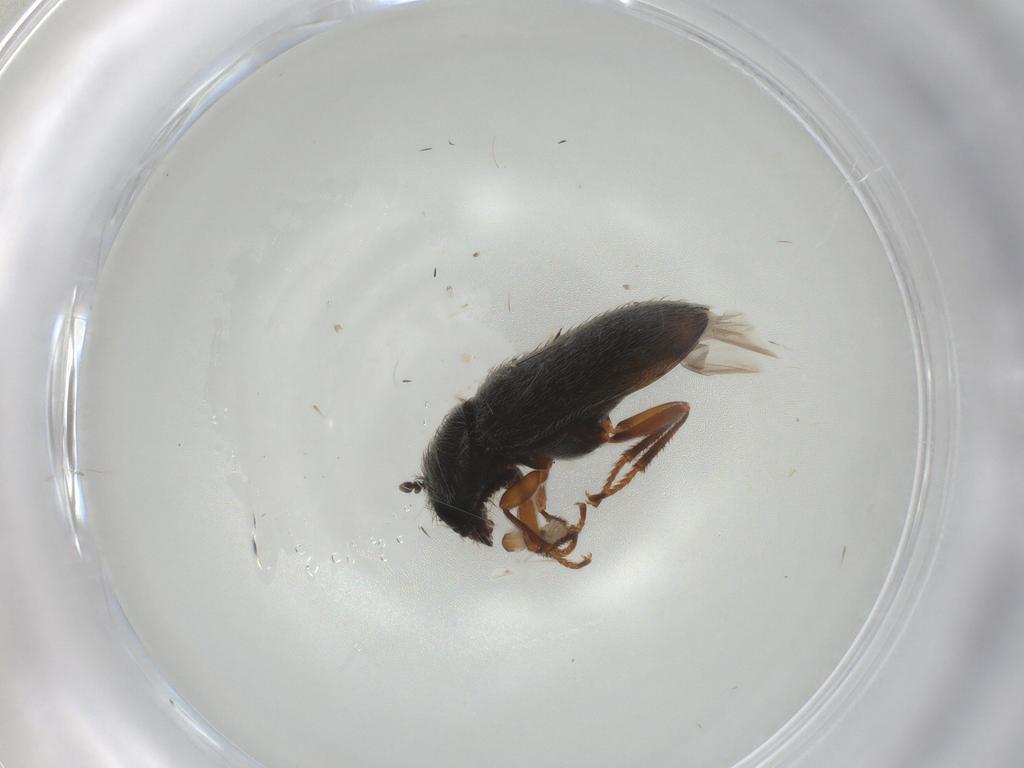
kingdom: Animalia
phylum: Arthropoda
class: Insecta
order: Coleoptera
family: Melyridae
